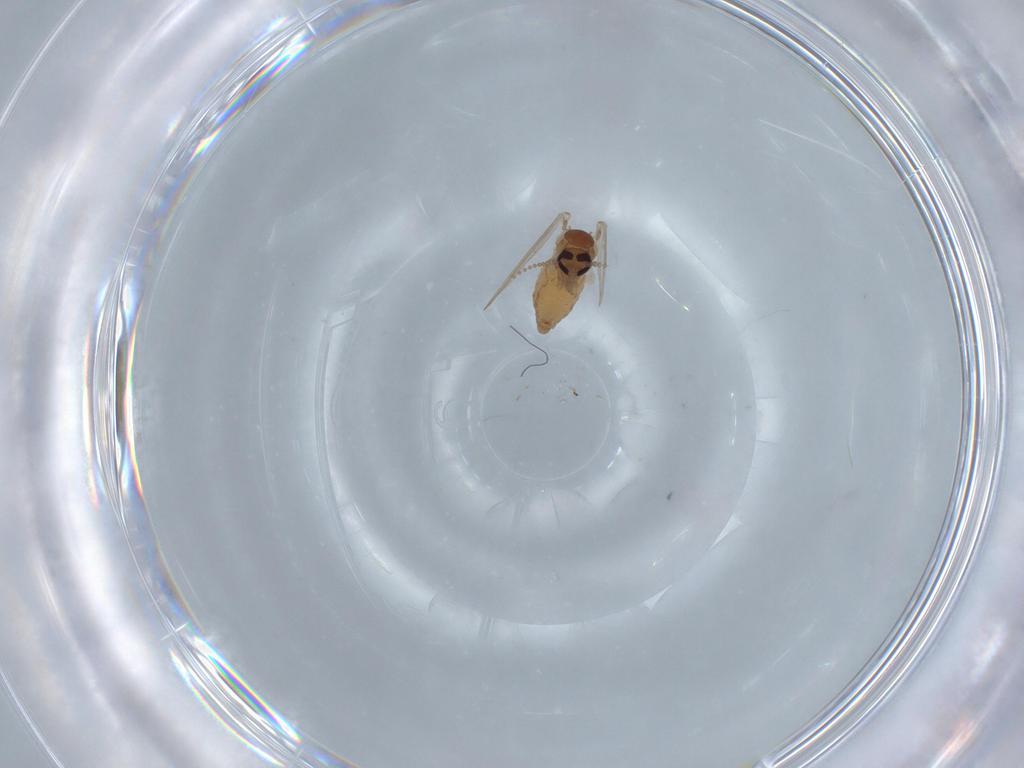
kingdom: Animalia
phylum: Arthropoda
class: Insecta
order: Diptera
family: Psychodidae
